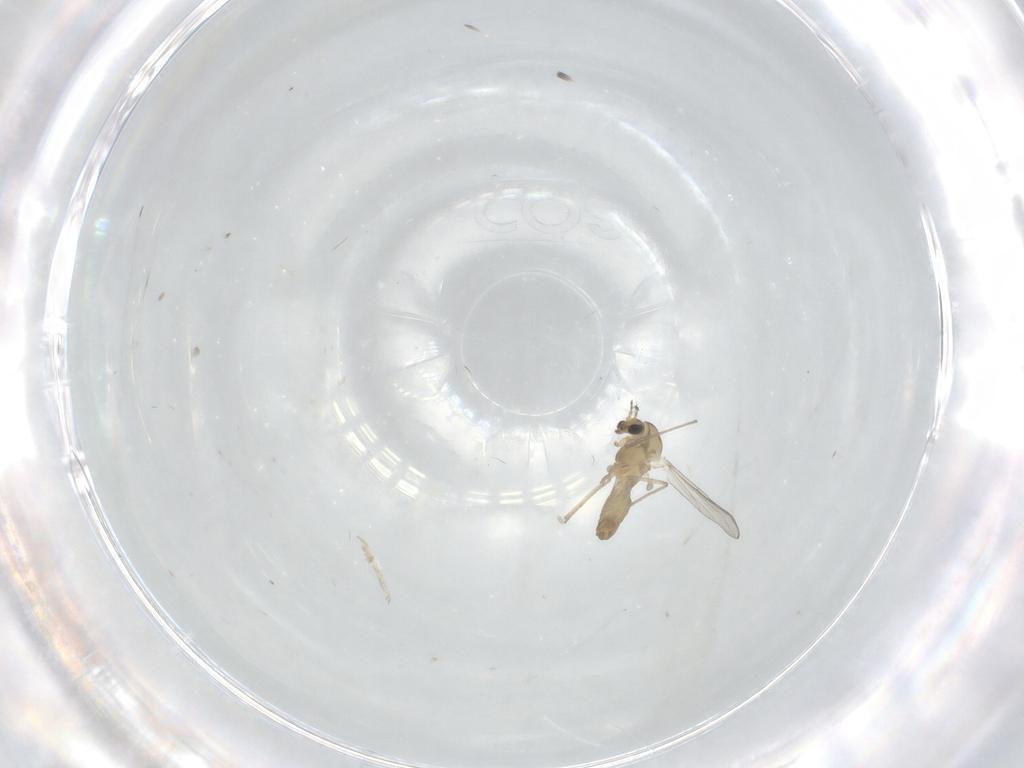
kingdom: Animalia
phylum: Arthropoda
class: Insecta
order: Diptera
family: Chironomidae
